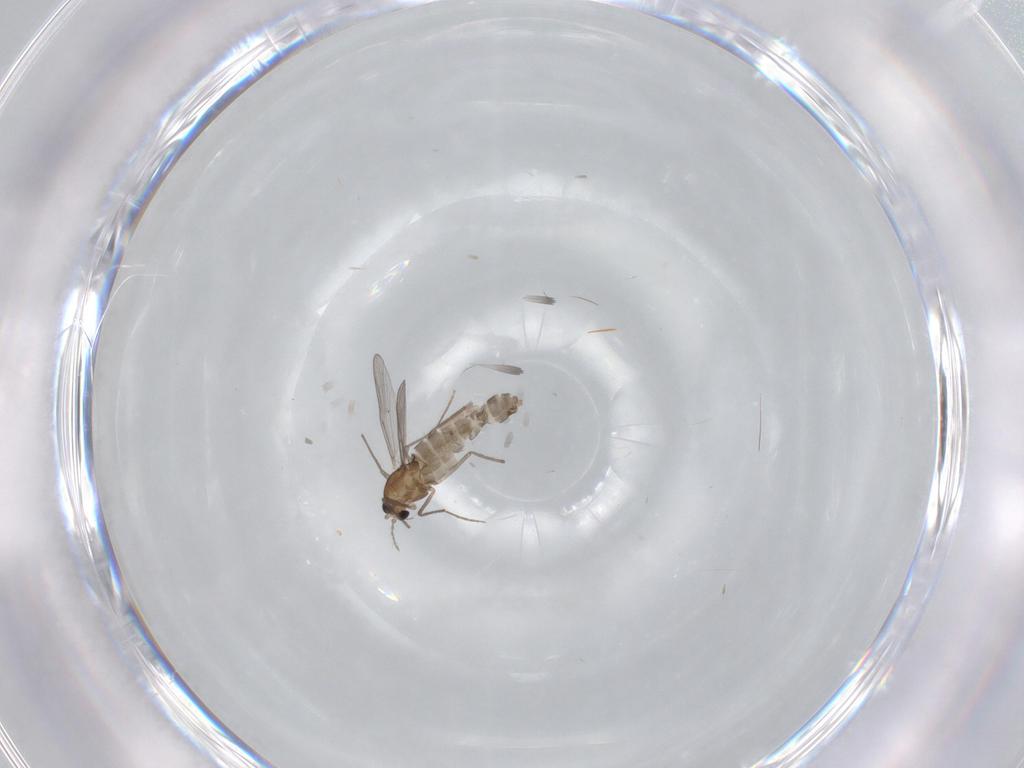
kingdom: Animalia
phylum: Arthropoda
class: Insecta
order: Diptera
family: Chironomidae
